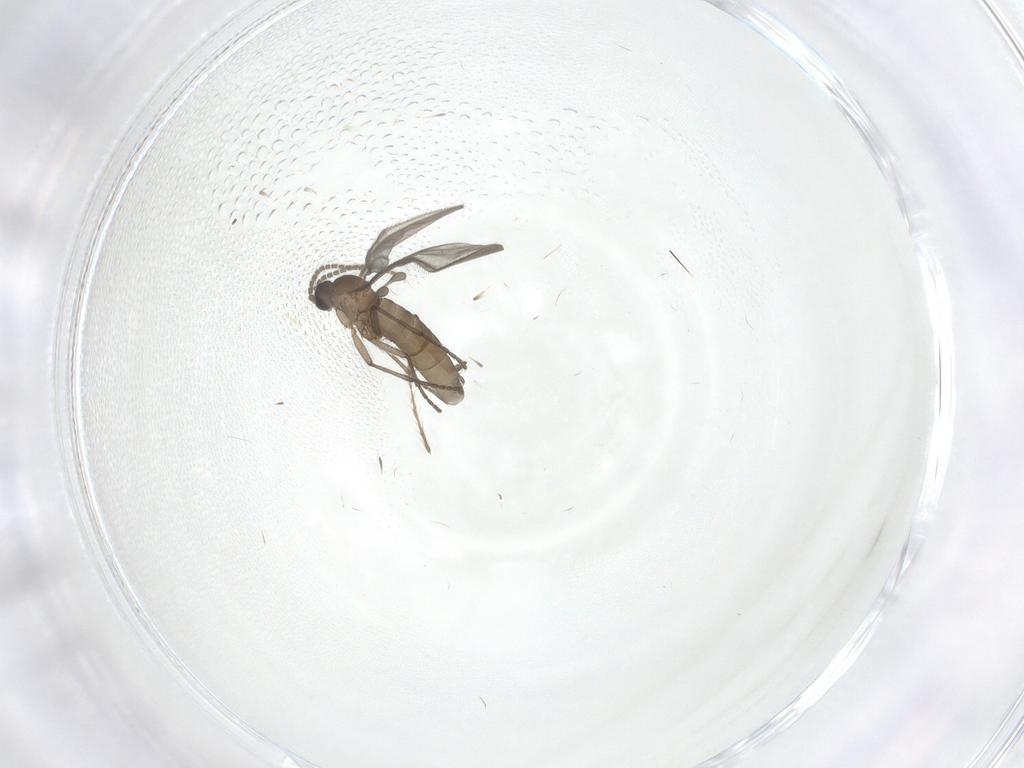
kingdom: Animalia
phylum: Arthropoda
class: Insecta
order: Diptera
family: Sciaridae
